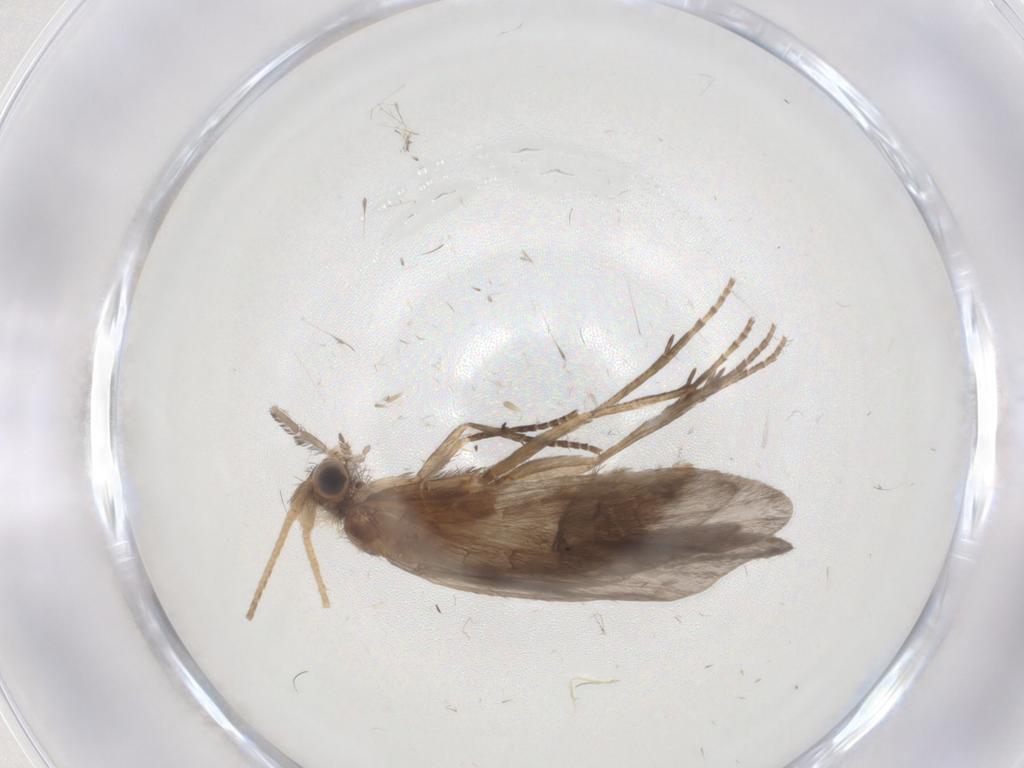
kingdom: Animalia
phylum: Arthropoda
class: Insecta
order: Trichoptera
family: Helicopsychidae
